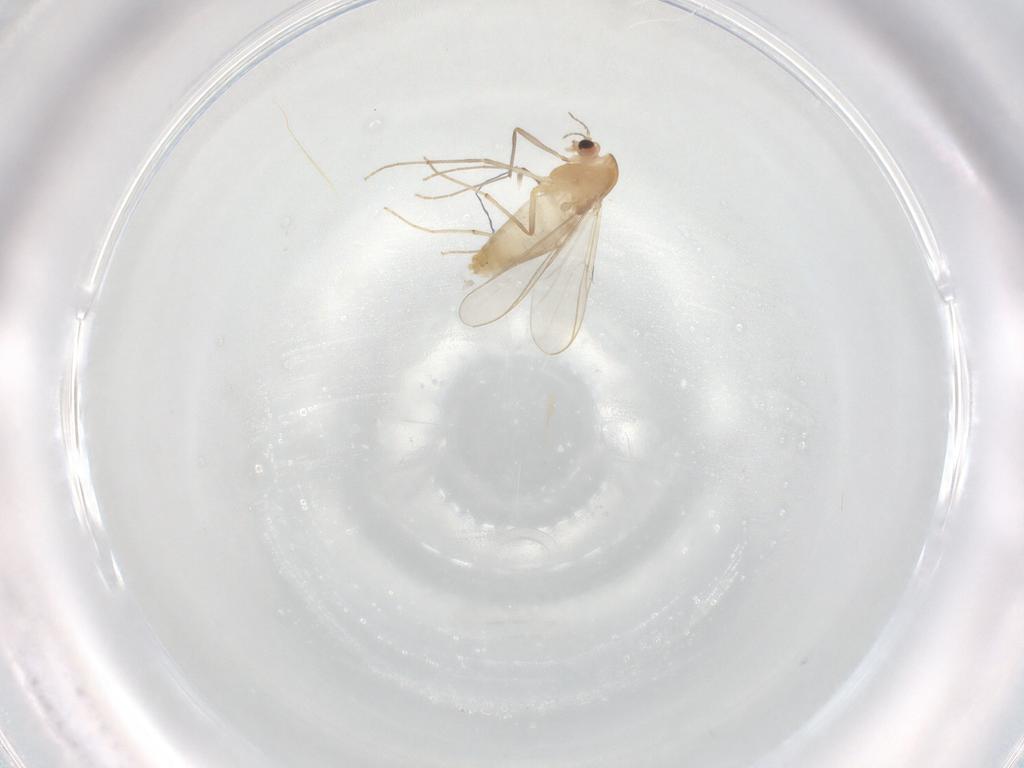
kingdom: Animalia
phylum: Arthropoda
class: Insecta
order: Diptera
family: Chironomidae
